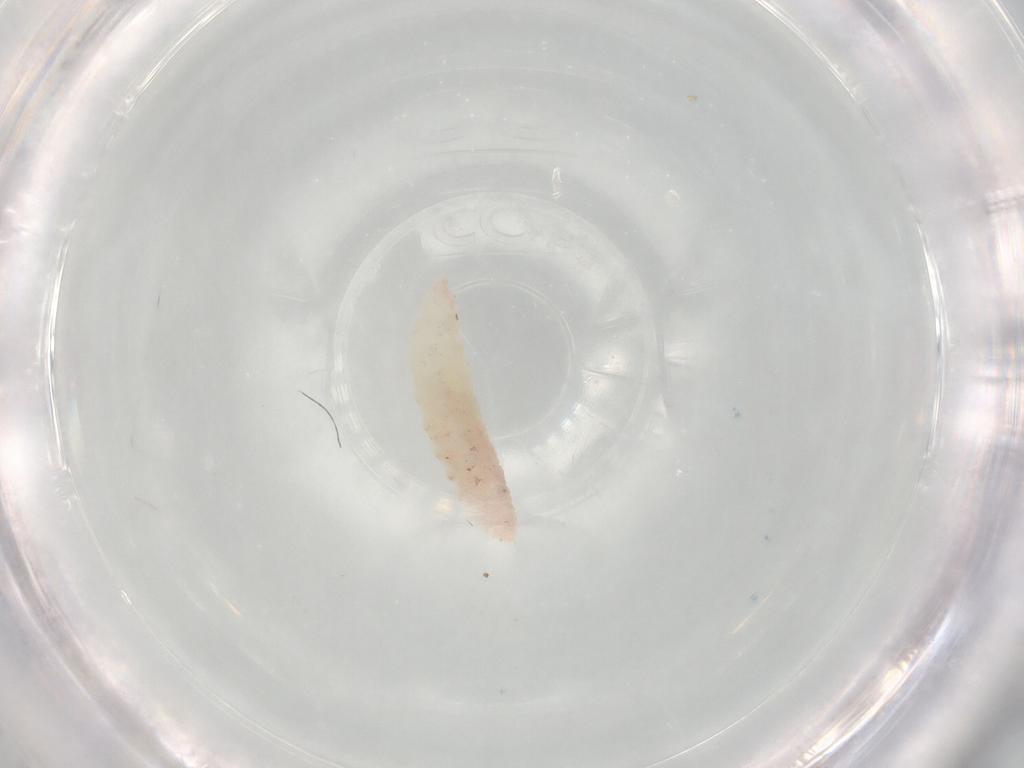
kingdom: Animalia
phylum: Arthropoda
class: Insecta
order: Diptera
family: Cecidomyiidae
